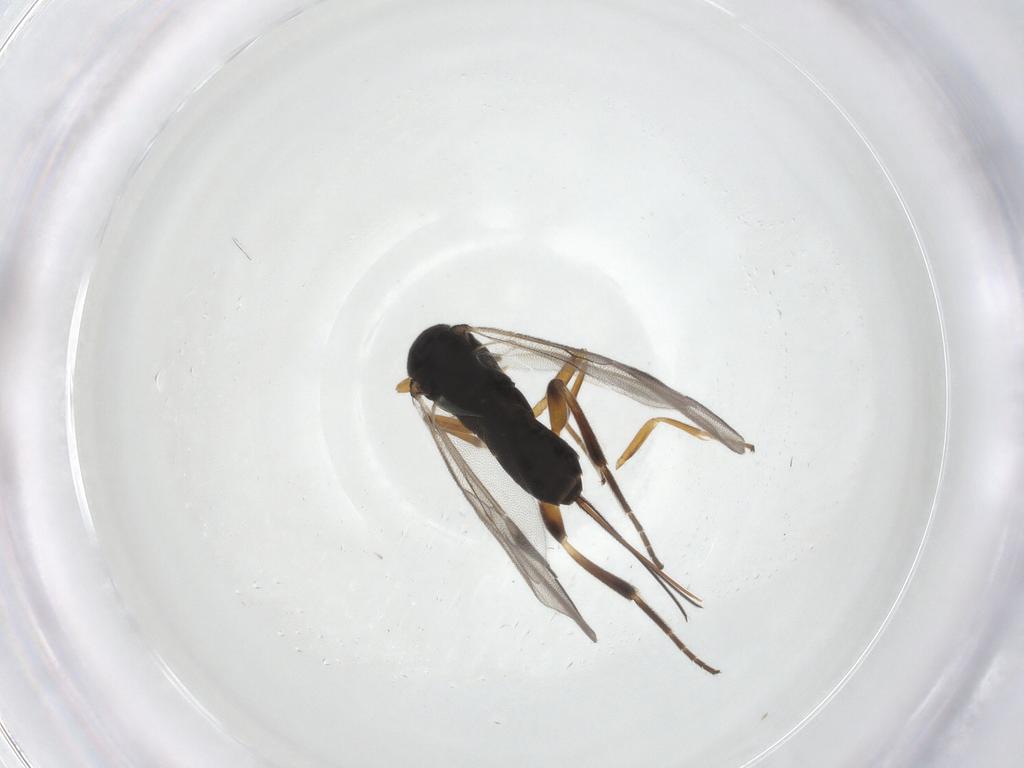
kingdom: Animalia
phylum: Arthropoda
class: Insecta
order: Hymenoptera
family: Braconidae
